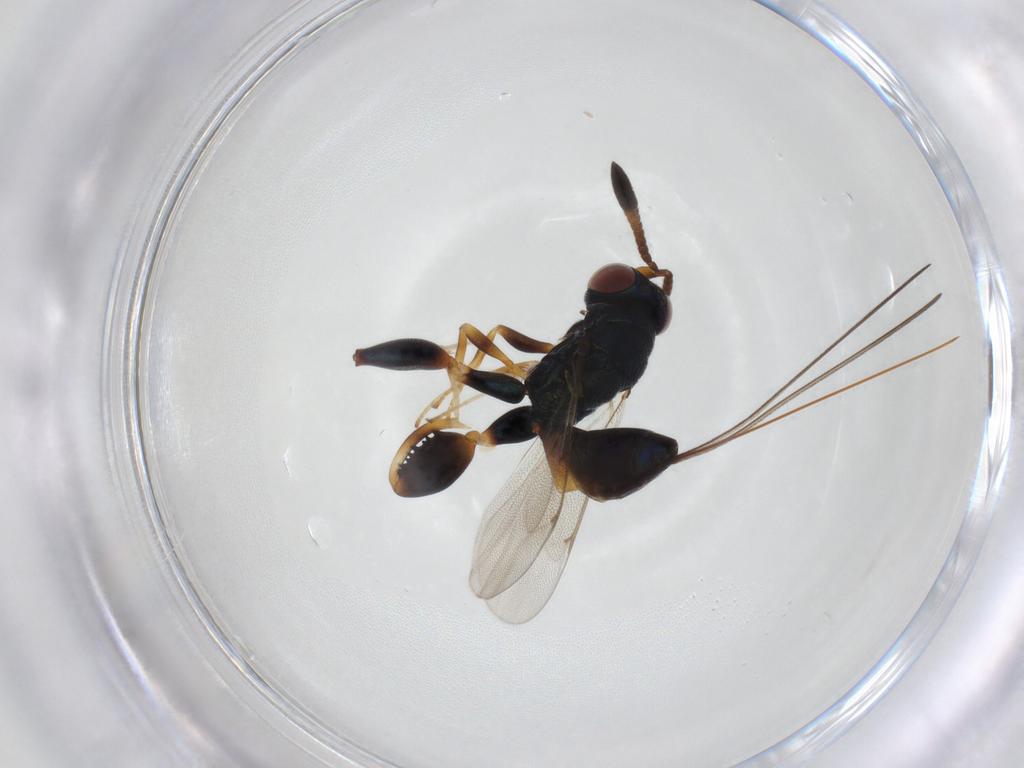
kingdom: Animalia
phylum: Arthropoda
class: Insecta
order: Hymenoptera
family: Torymidae
